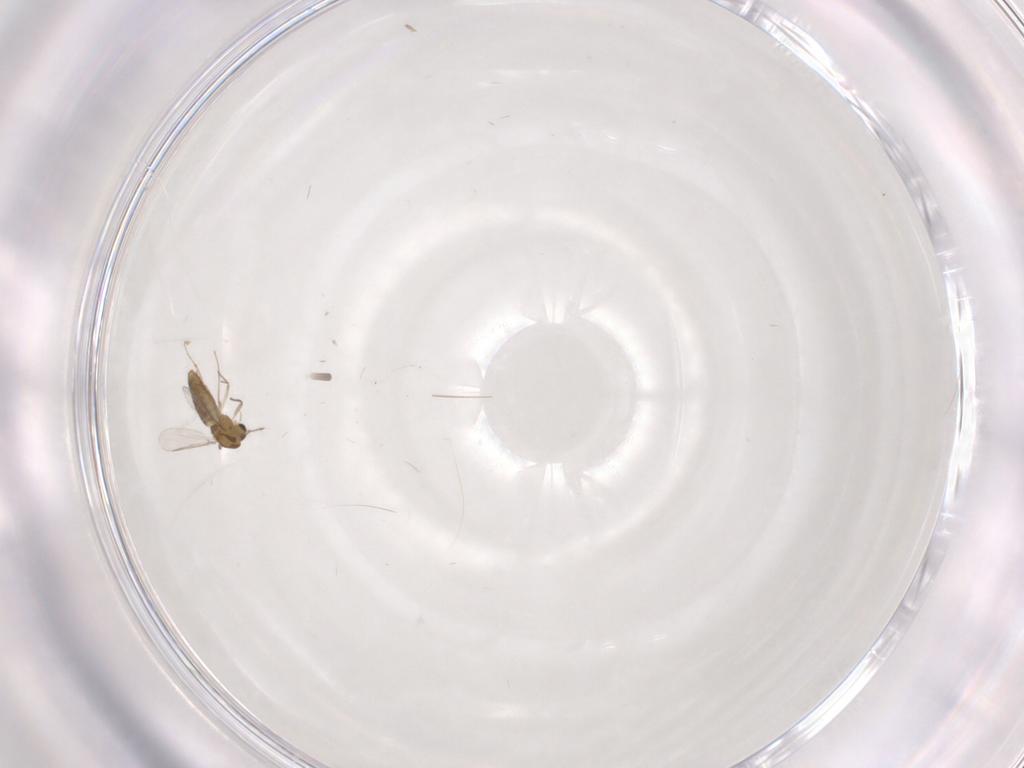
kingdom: Animalia
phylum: Arthropoda
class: Insecta
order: Diptera
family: Chironomidae
